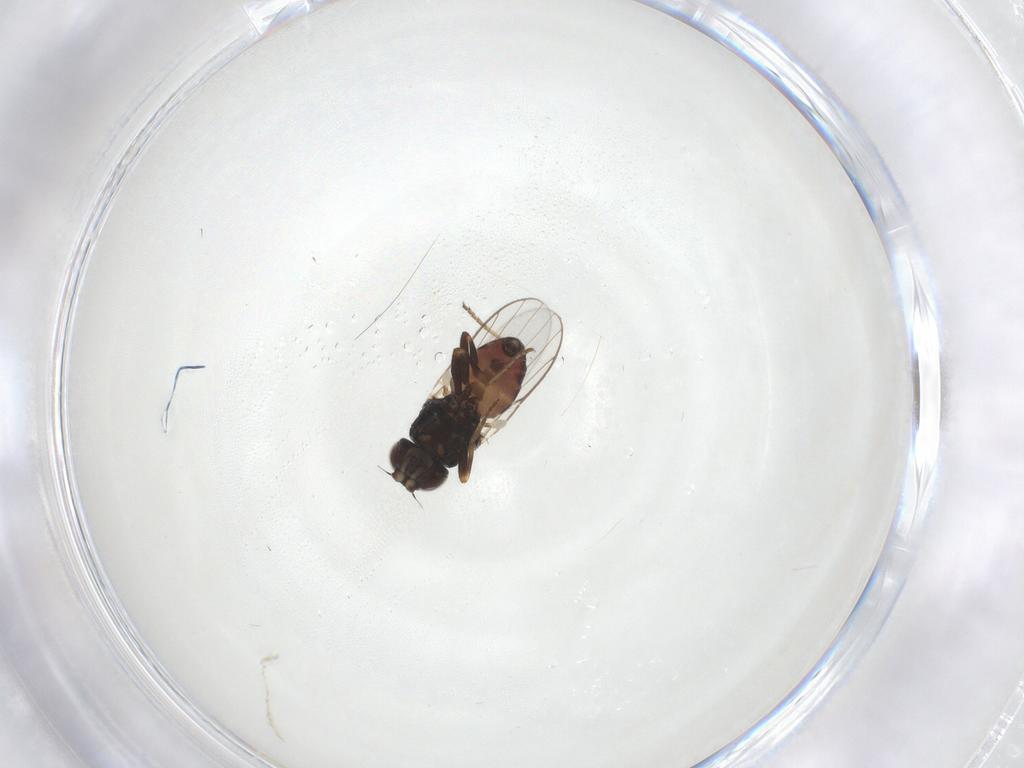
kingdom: Animalia
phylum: Arthropoda
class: Insecta
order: Diptera
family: Chloropidae
